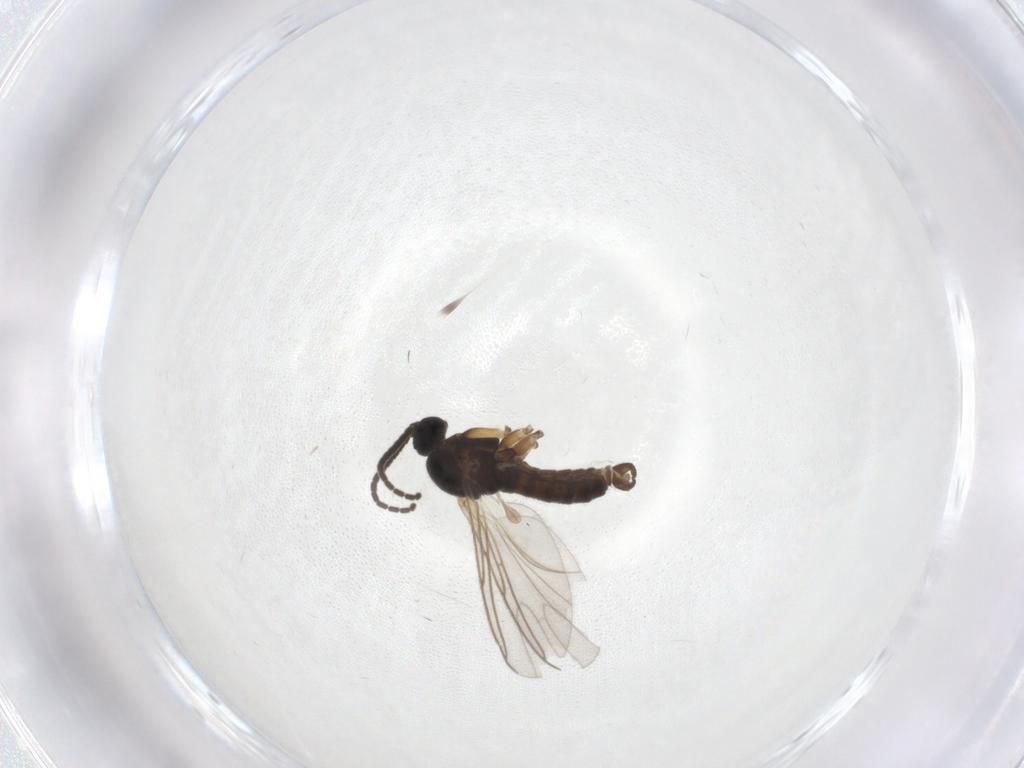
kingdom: Animalia
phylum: Arthropoda
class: Insecta
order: Diptera
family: Sciaridae
